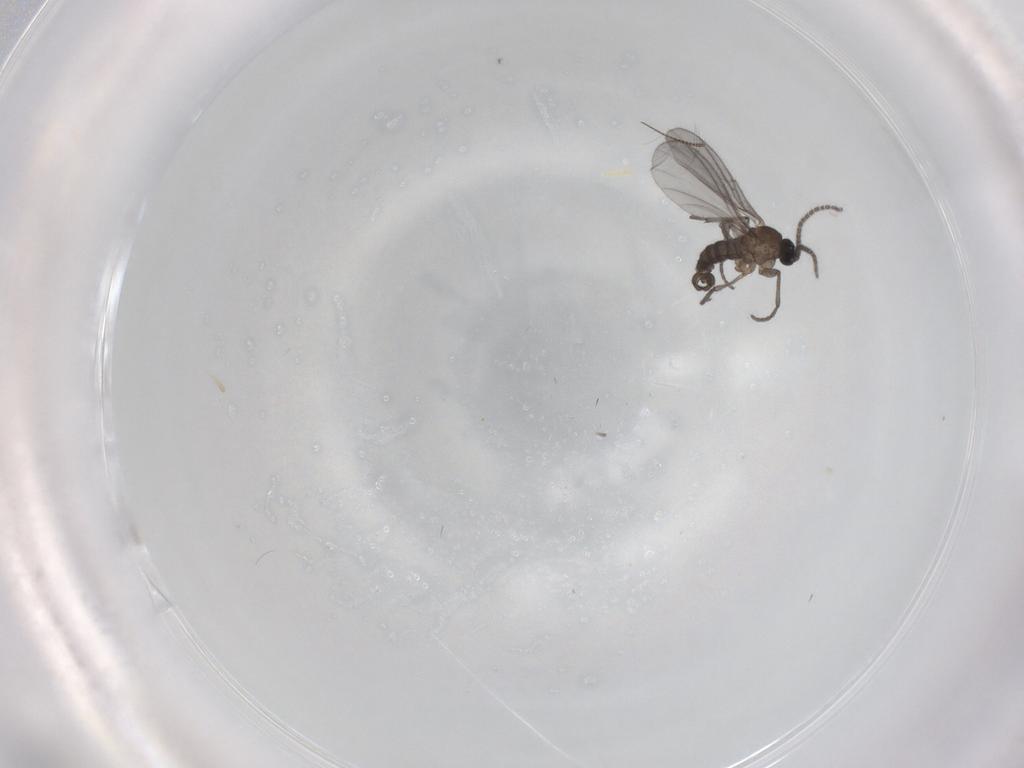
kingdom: Animalia
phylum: Arthropoda
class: Insecta
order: Diptera
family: Sciaridae
